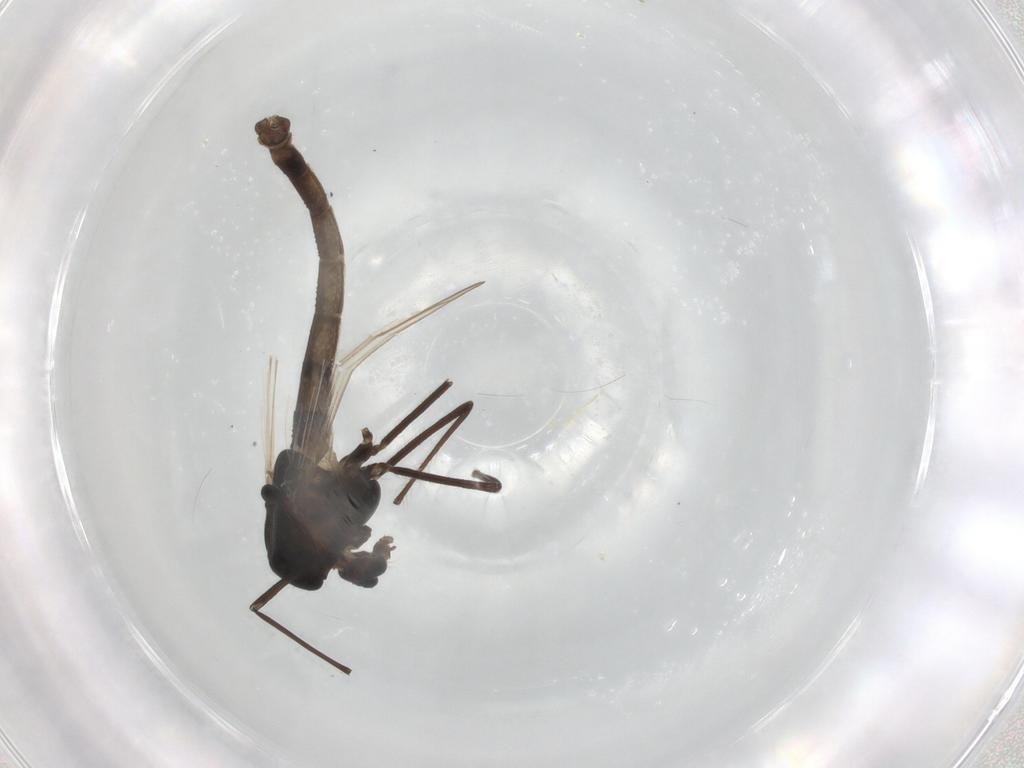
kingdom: Animalia
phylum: Arthropoda
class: Insecta
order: Diptera
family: Chironomidae
